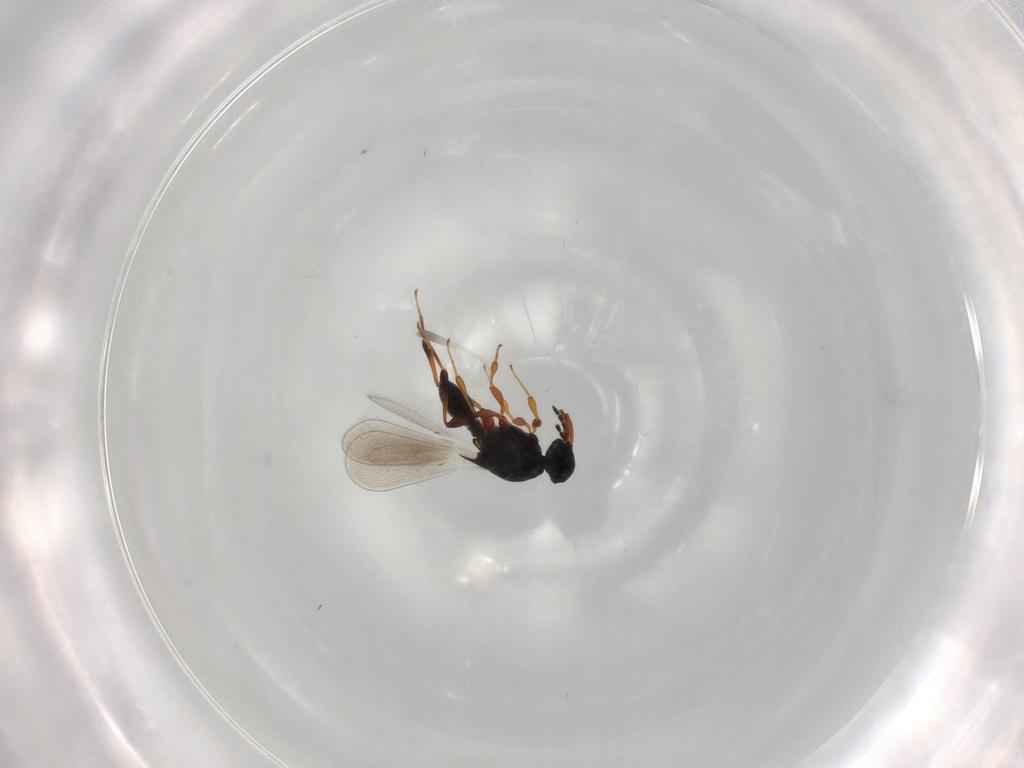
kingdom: Animalia
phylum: Arthropoda
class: Insecta
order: Hymenoptera
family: Platygastridae
